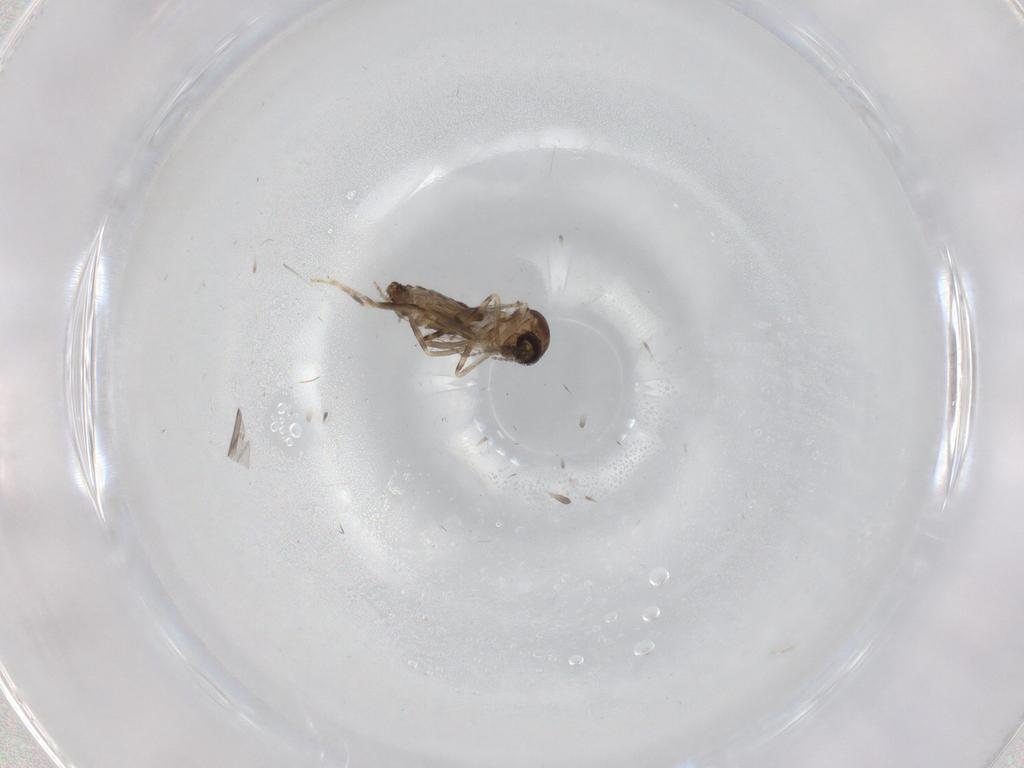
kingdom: Animalia
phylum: Arthropoda
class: Insecta
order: Diptera
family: Ceratopogonidae
